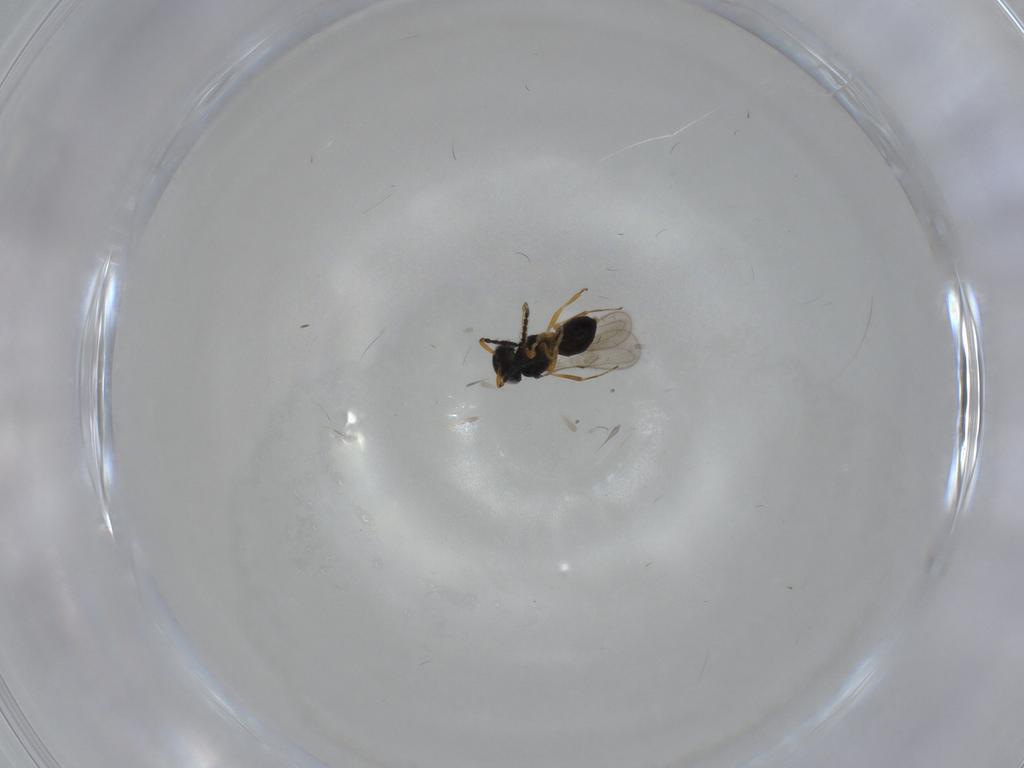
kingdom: Animalia
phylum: Arthropoda
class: Insecta
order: Hymenoptera
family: Scelionidae
